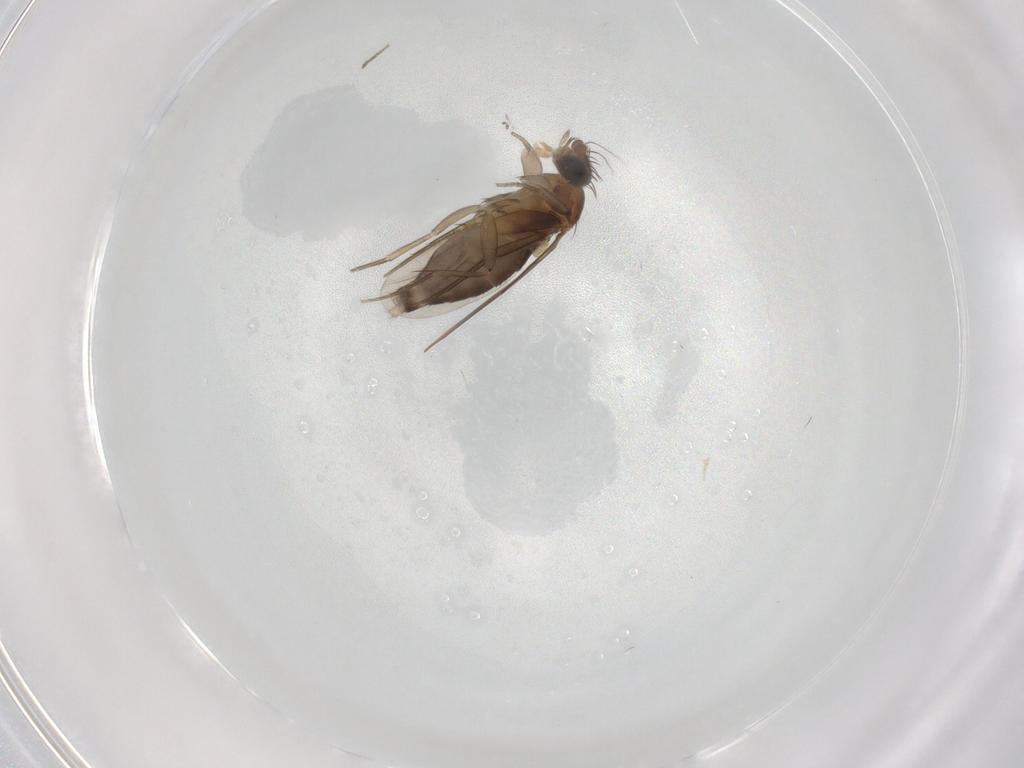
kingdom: Animalia
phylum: Arthropoda
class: Insecta
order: Diptera
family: Phoridae
